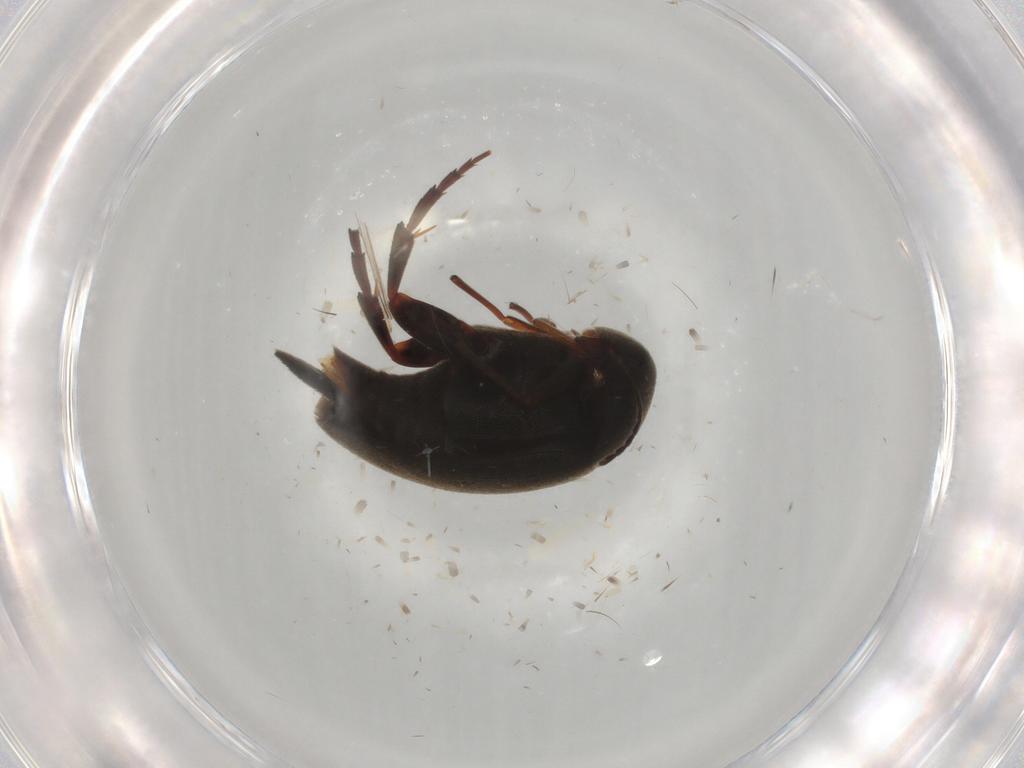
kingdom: Animalia
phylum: Arthropoda
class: Insecta
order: Coleoptera
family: Mordellidae
